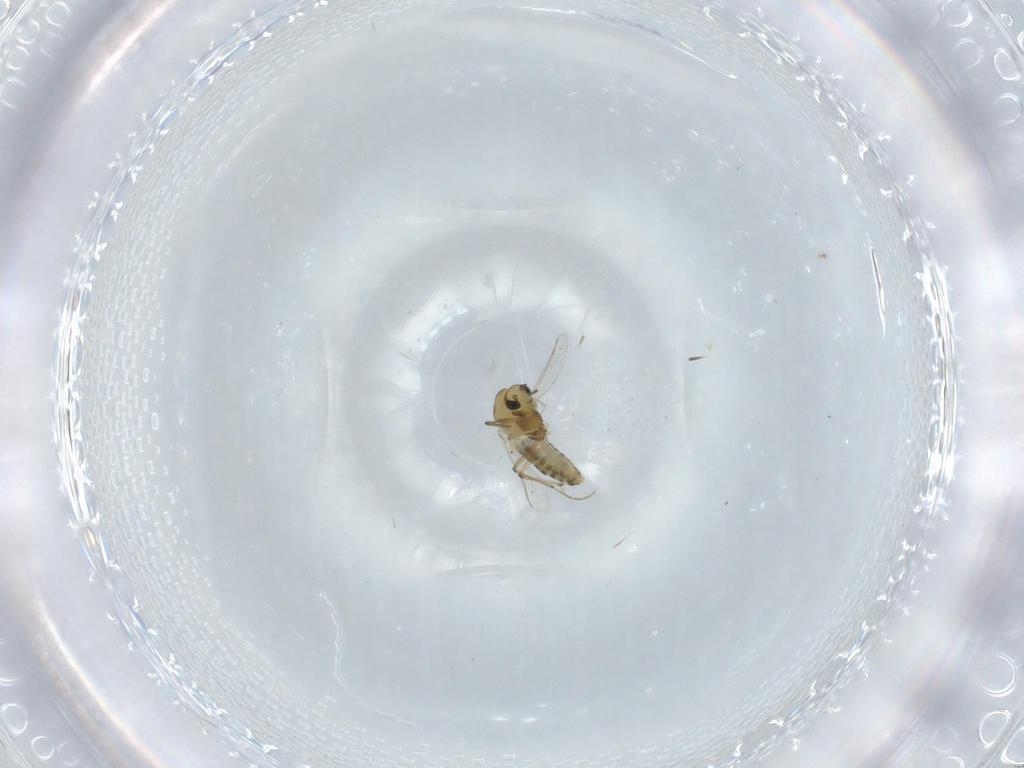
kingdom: Animalia
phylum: Arthropoda
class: Insecta
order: Diptera
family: Chironomidae
